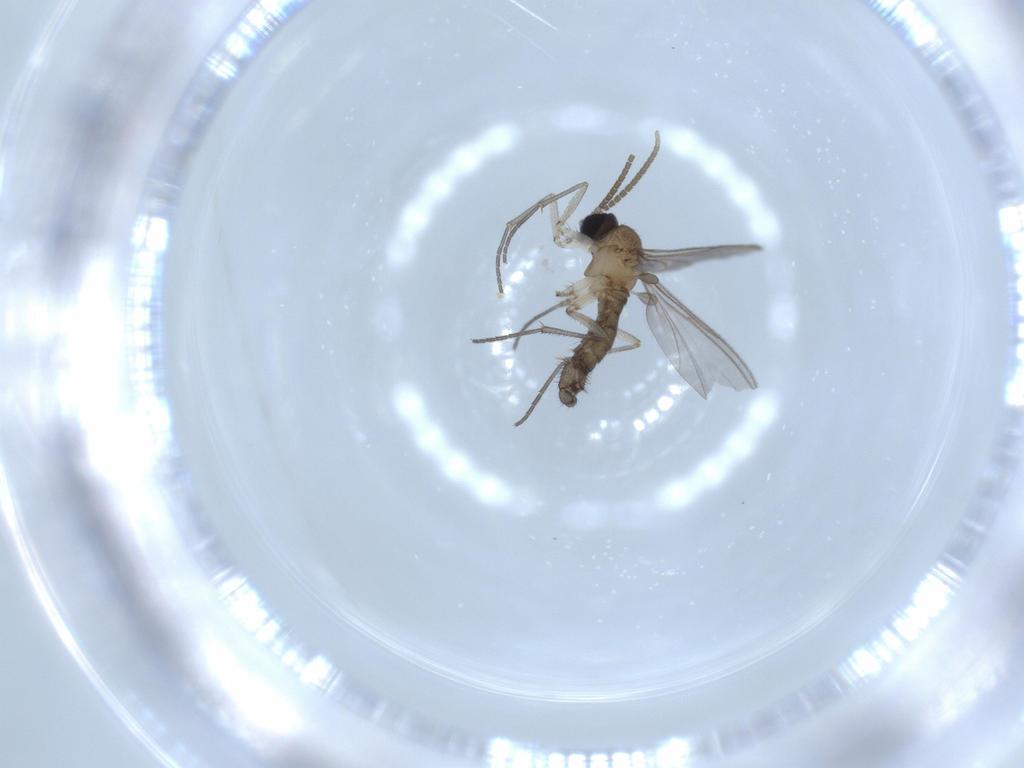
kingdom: Animalia
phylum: Arthropoda
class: Insecta
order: Diptera
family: Sciaridae
